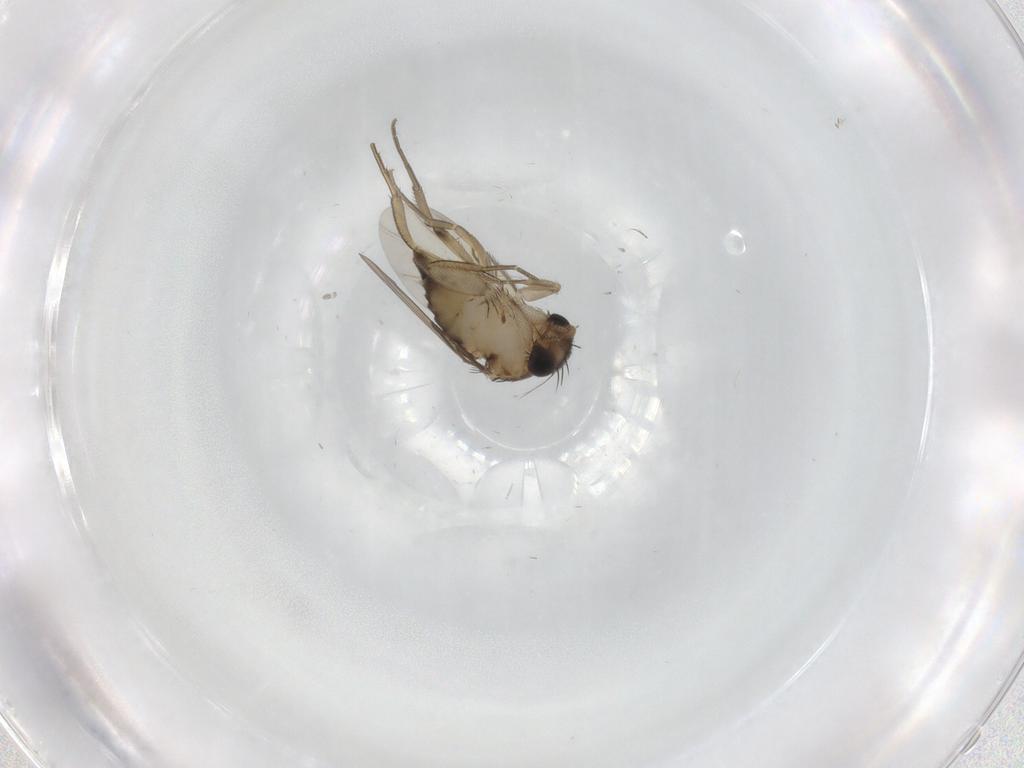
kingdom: Animalia
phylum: Arthropoda
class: Insecta
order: Diptera
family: Phoridae
